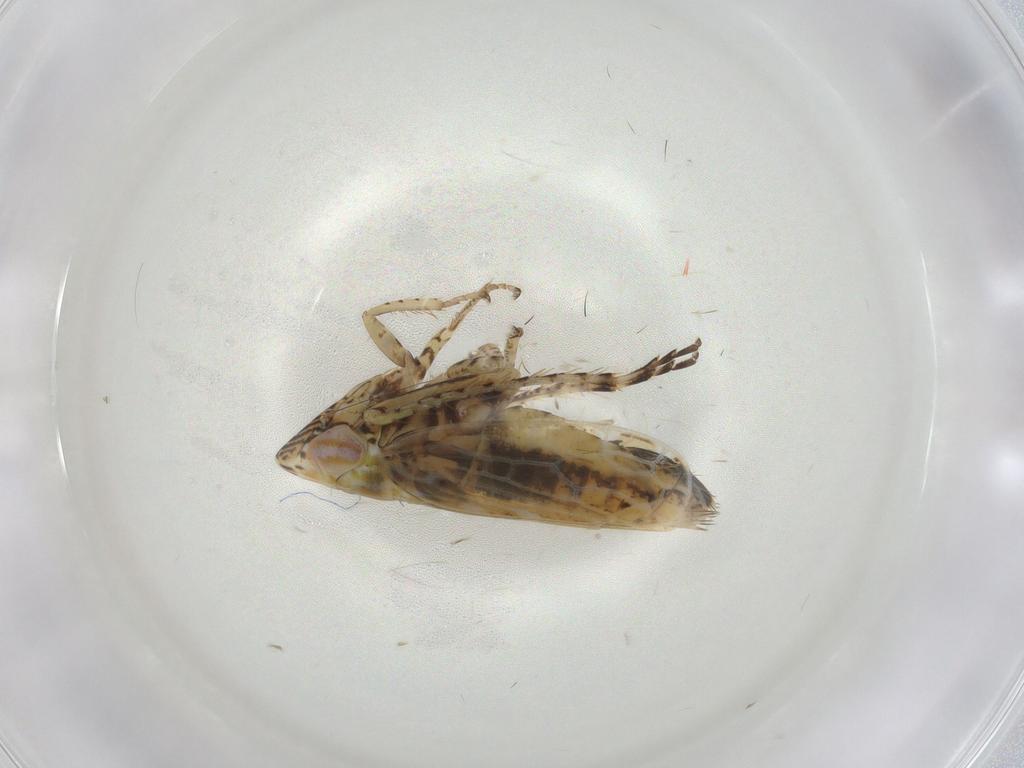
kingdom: Animalia
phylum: Arthropoda
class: Insecta
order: Hemiptera
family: Cicadellidae
